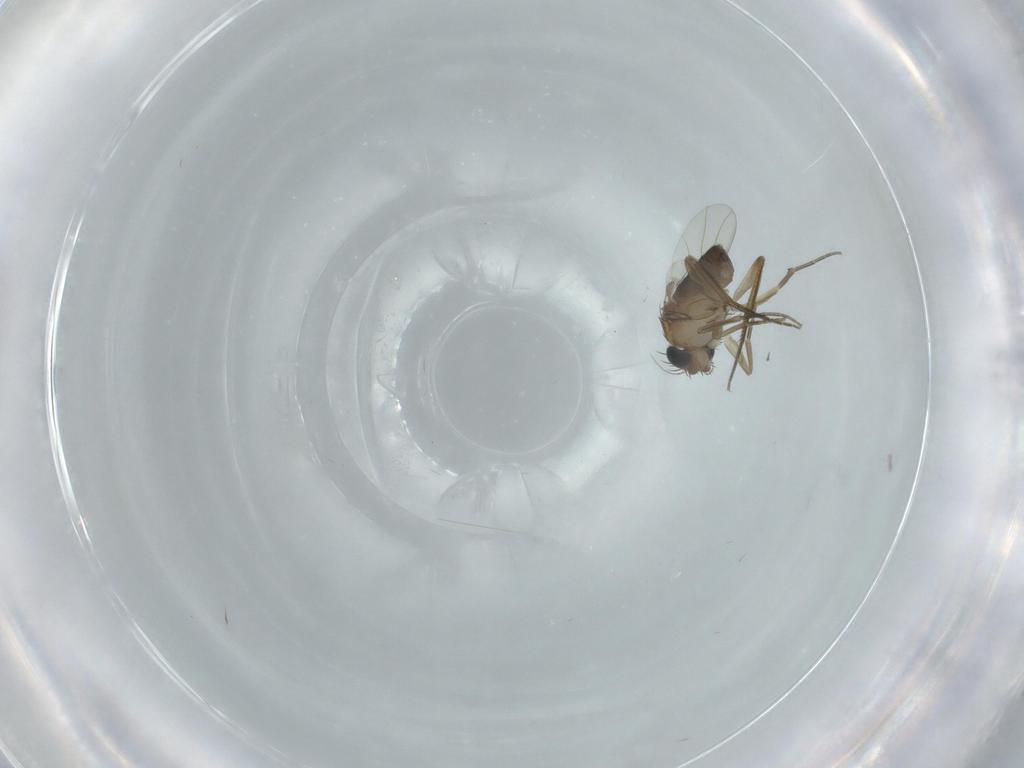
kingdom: Animalia
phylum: Arthropoda
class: Insecta
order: Diptera
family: Phoridae
